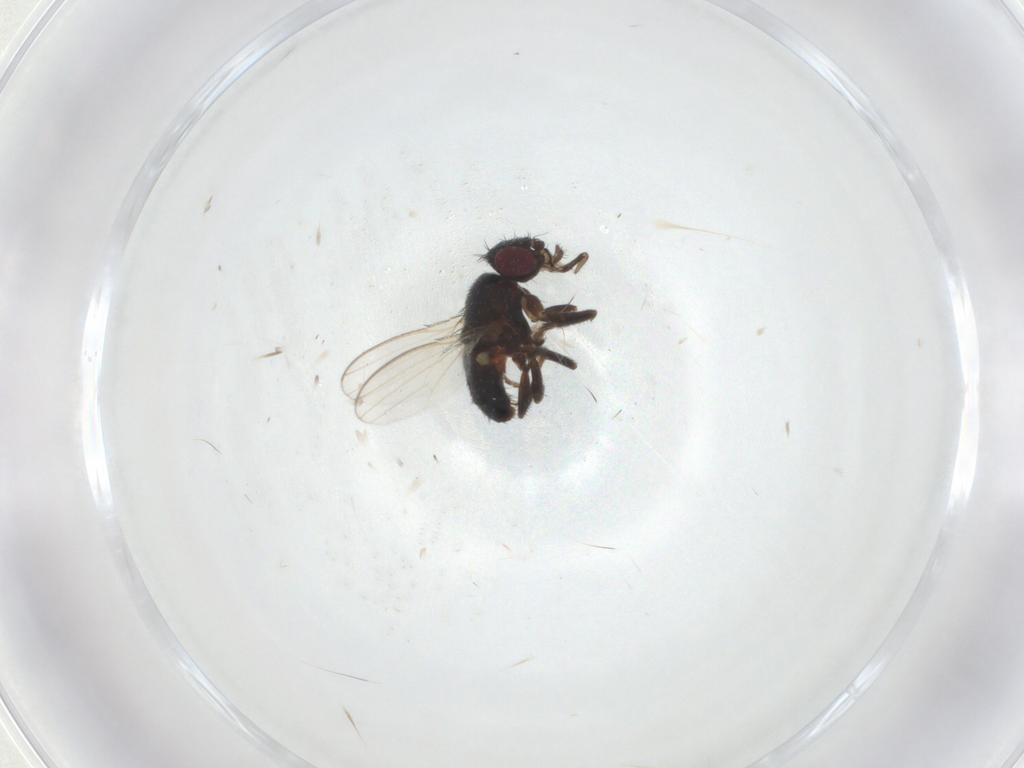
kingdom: Animalia
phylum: Arthropoda
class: Insecta
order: Diptera
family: Milichiidae
